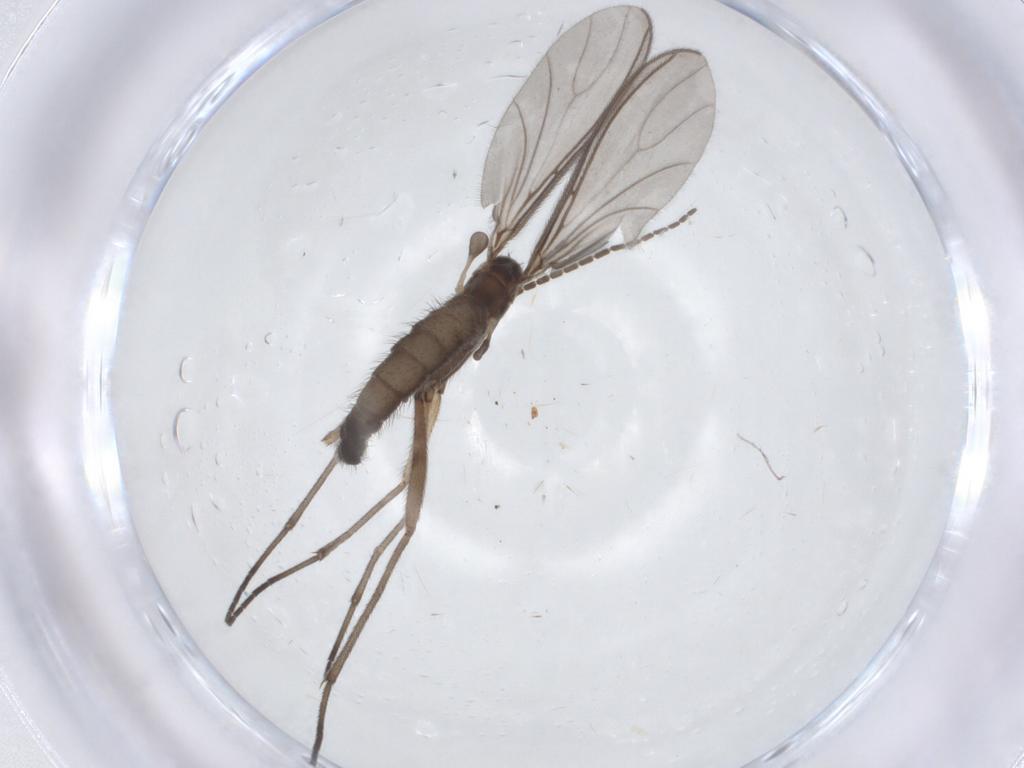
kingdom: Animalia
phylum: Arthropoda
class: Insecta
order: Diptera
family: Sciaridae
